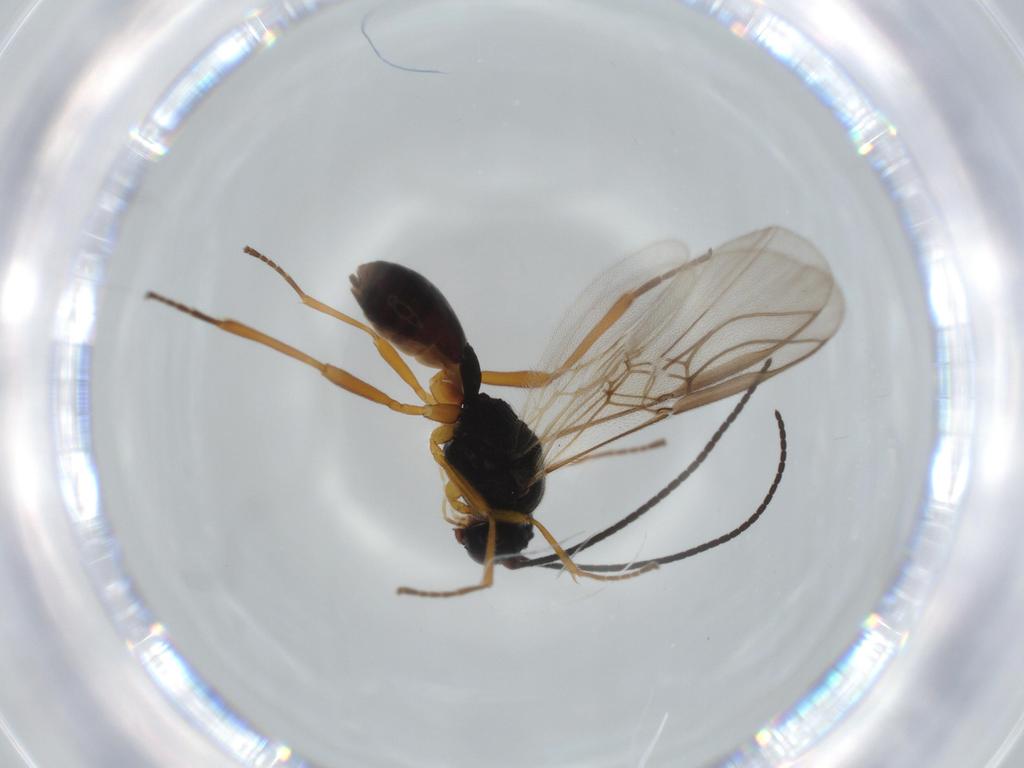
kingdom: Animalia
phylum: Arthropoda
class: Insecta
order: Hymenoptera
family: Braconidae
